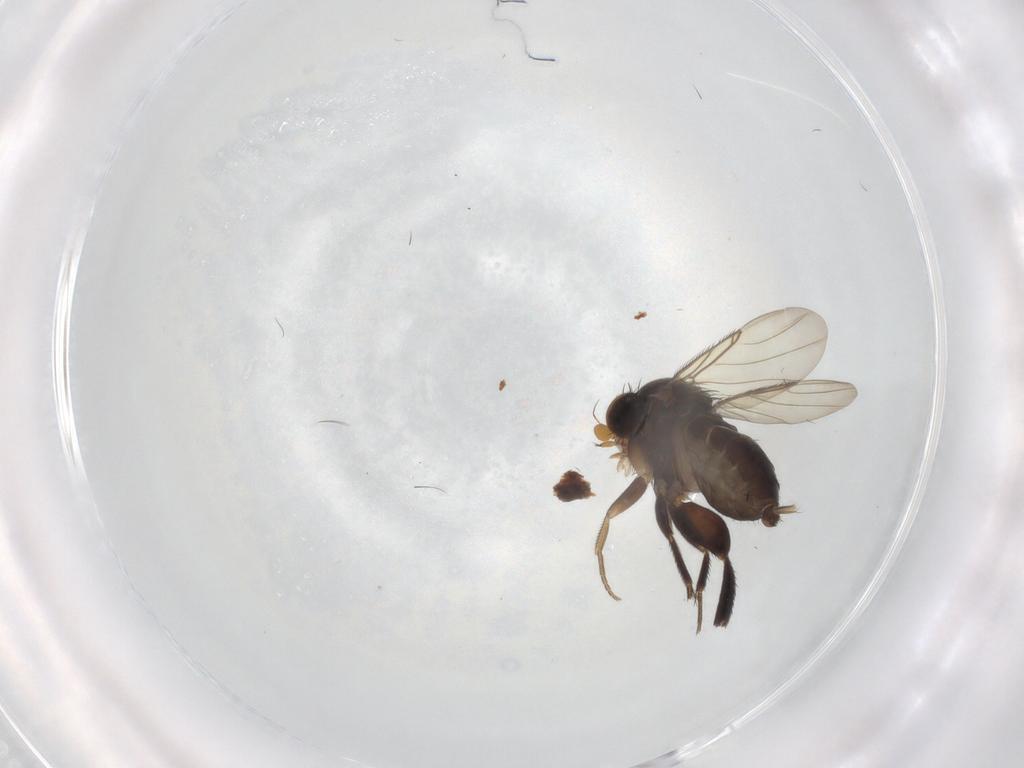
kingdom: Animalia
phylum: Arthropoda
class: Insecta
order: Diptera
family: Phoridae
